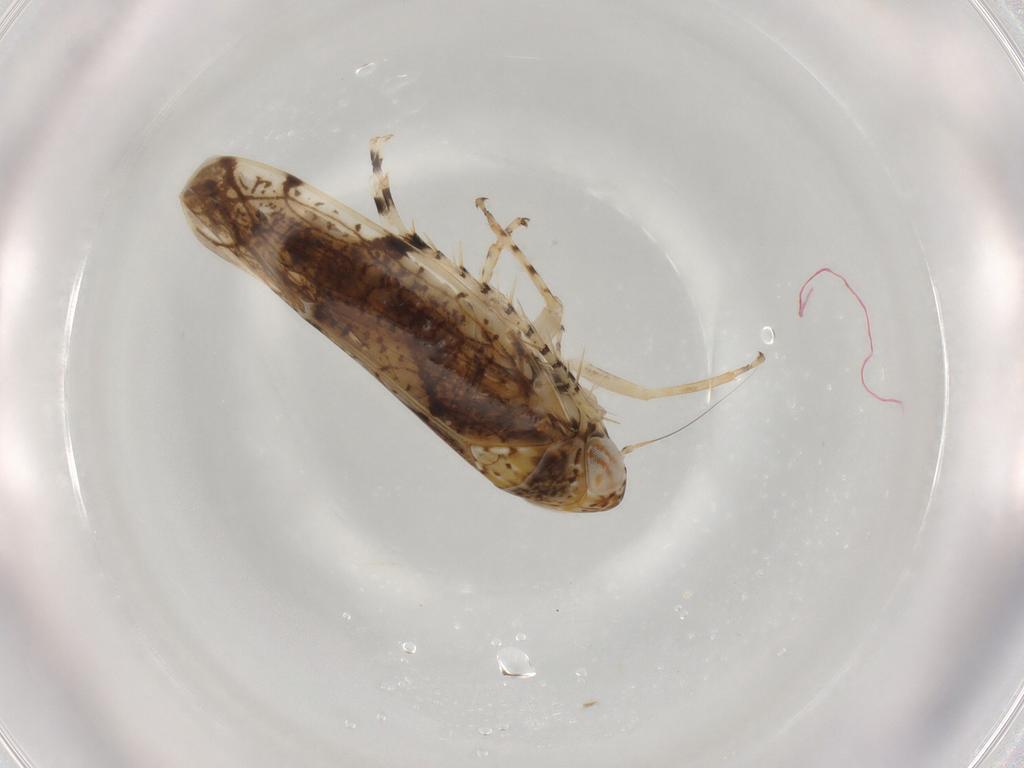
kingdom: Animalia
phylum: Arthropoda
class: Insecta
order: Hemiptera
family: Cicadellidae
